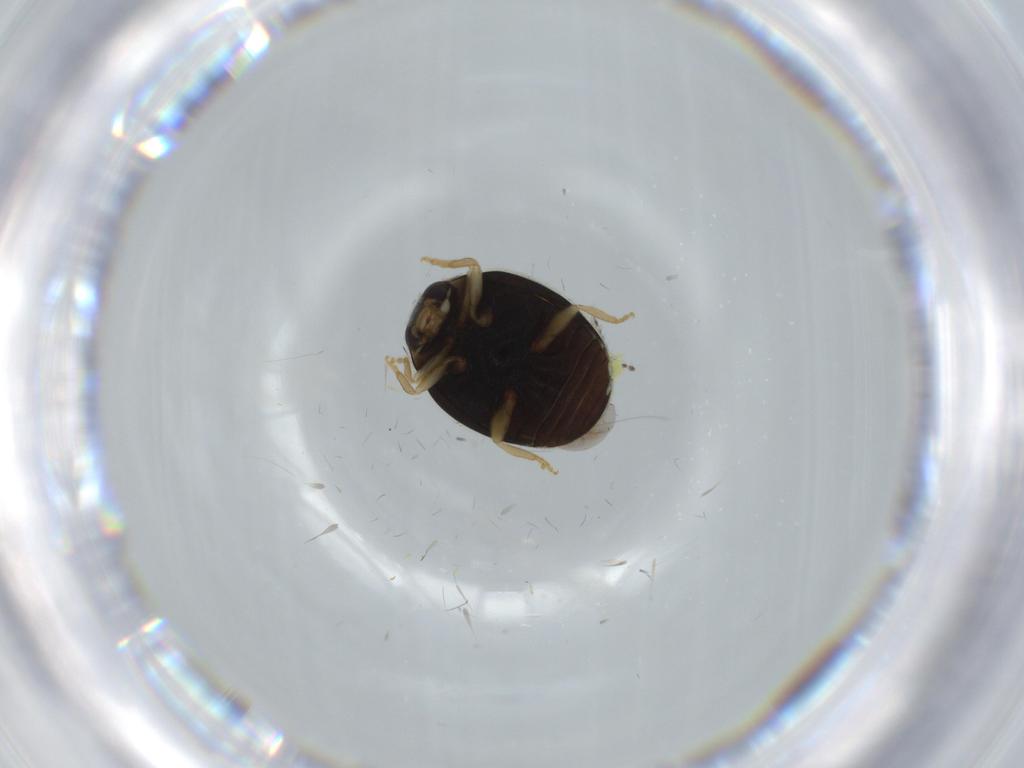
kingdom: Animalia
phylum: Arthropoda
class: Insecta
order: Coleoptera
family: Coccinellidae
